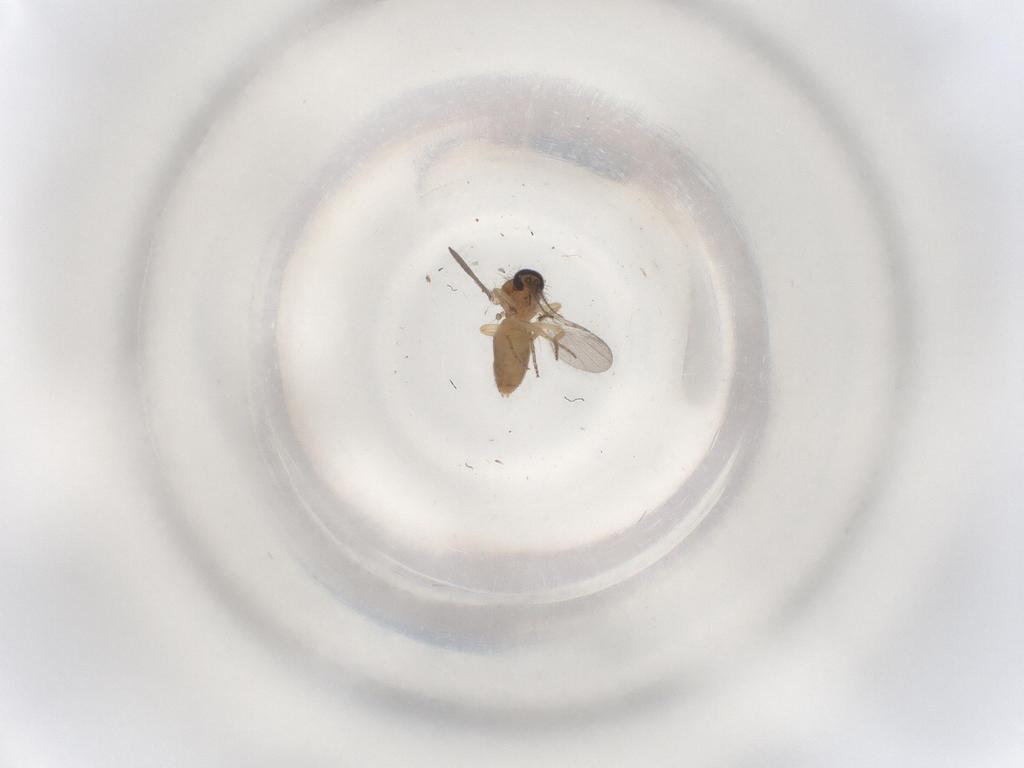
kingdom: Animalia
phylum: Arthropoda
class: Insecta
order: Diptera
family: Ceratopogonidae
